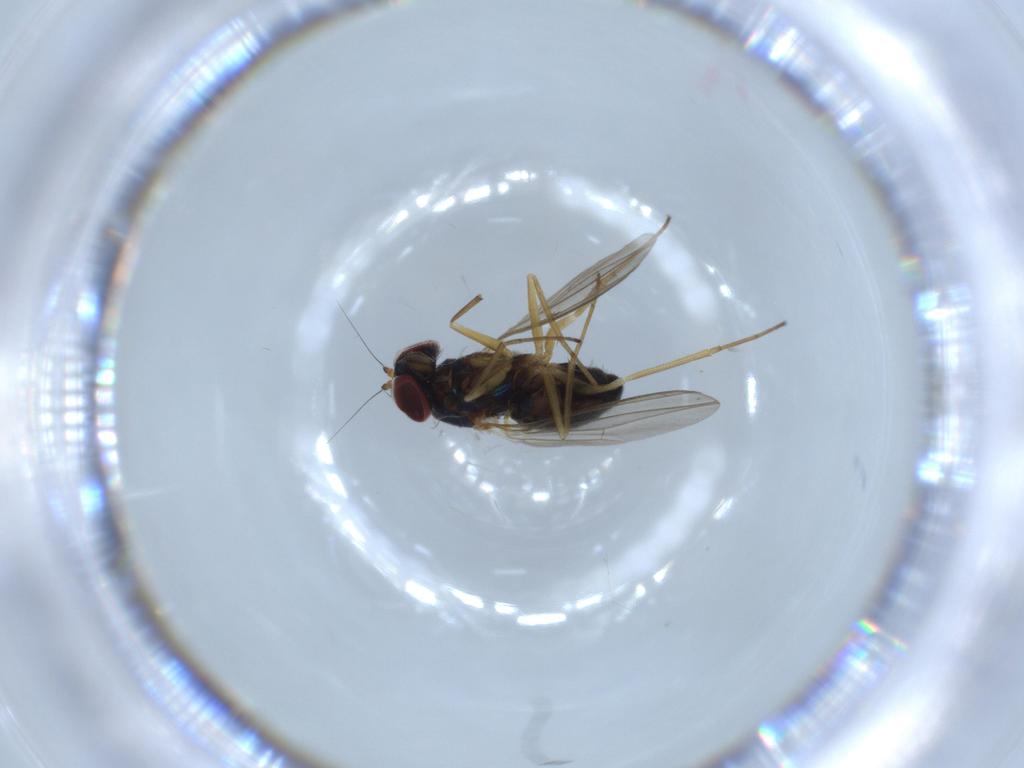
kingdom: Animalia
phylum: Arthropoda
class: Insecta
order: Diptera
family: Dolichopodidae
